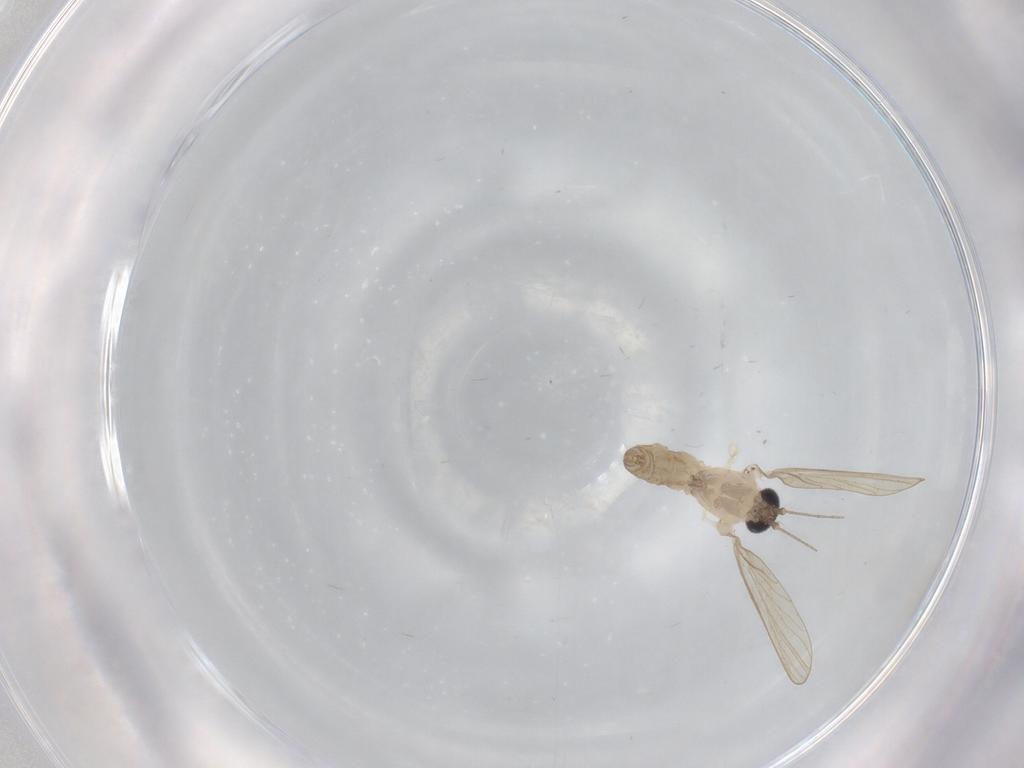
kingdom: Animalia
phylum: Arthropoda
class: Insecta
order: Diptera
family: Psychodidae
